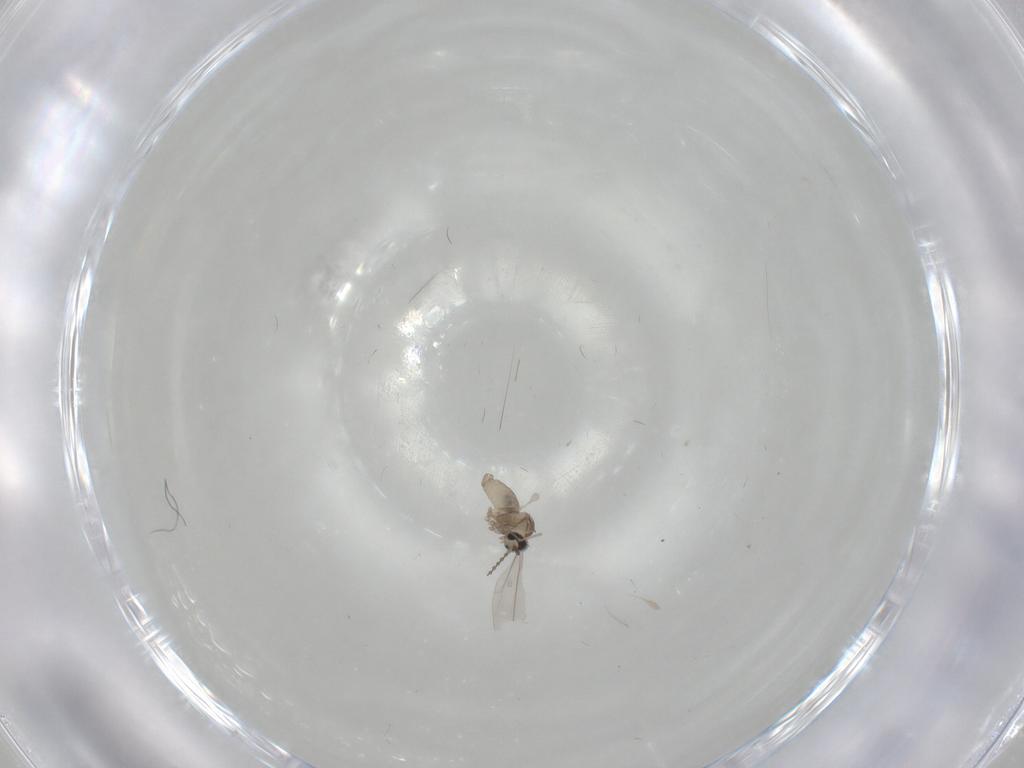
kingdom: Animalia
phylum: Arthropoda
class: Insecta
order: Diptera
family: Cecidomyiidae
